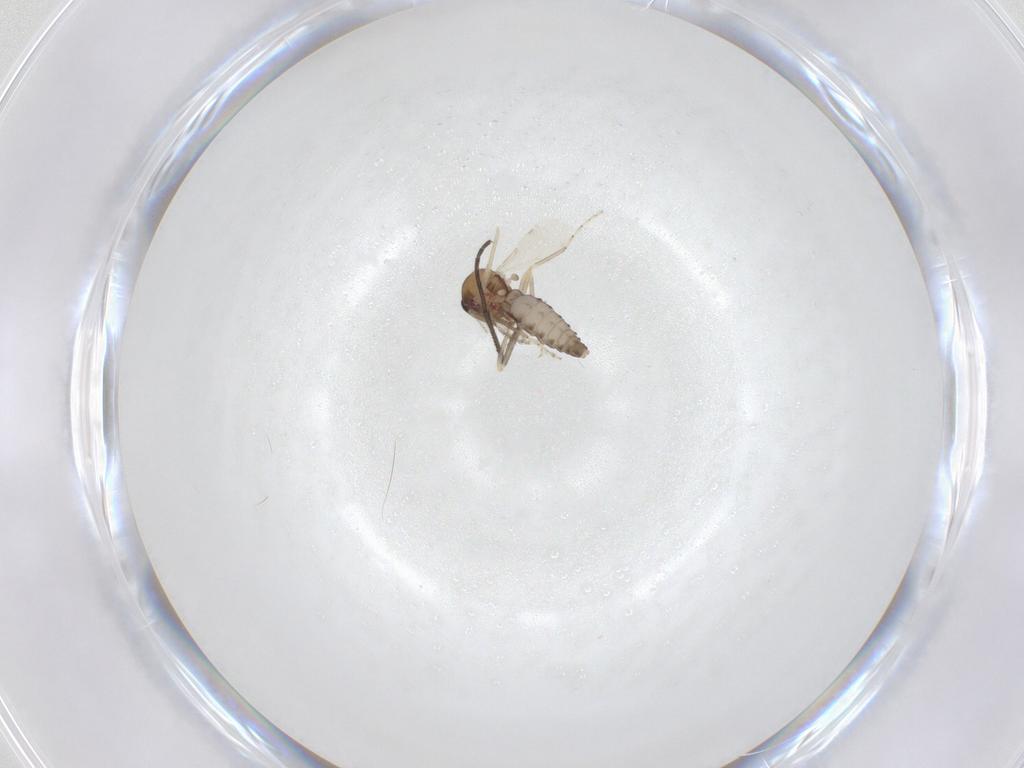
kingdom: Animalia
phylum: Arthropoda
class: Insecta
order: Diptera
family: Ceratopogonidae
